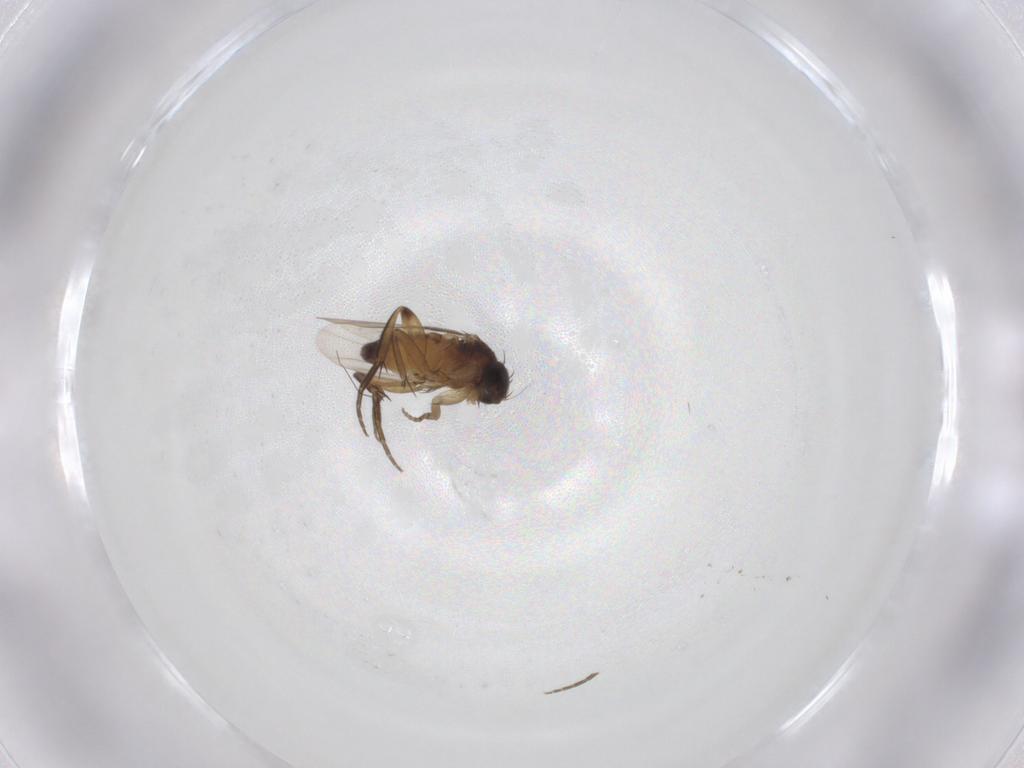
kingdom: Animalia
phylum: Arthropoda
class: Insecta
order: Diptera
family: Phoridae
